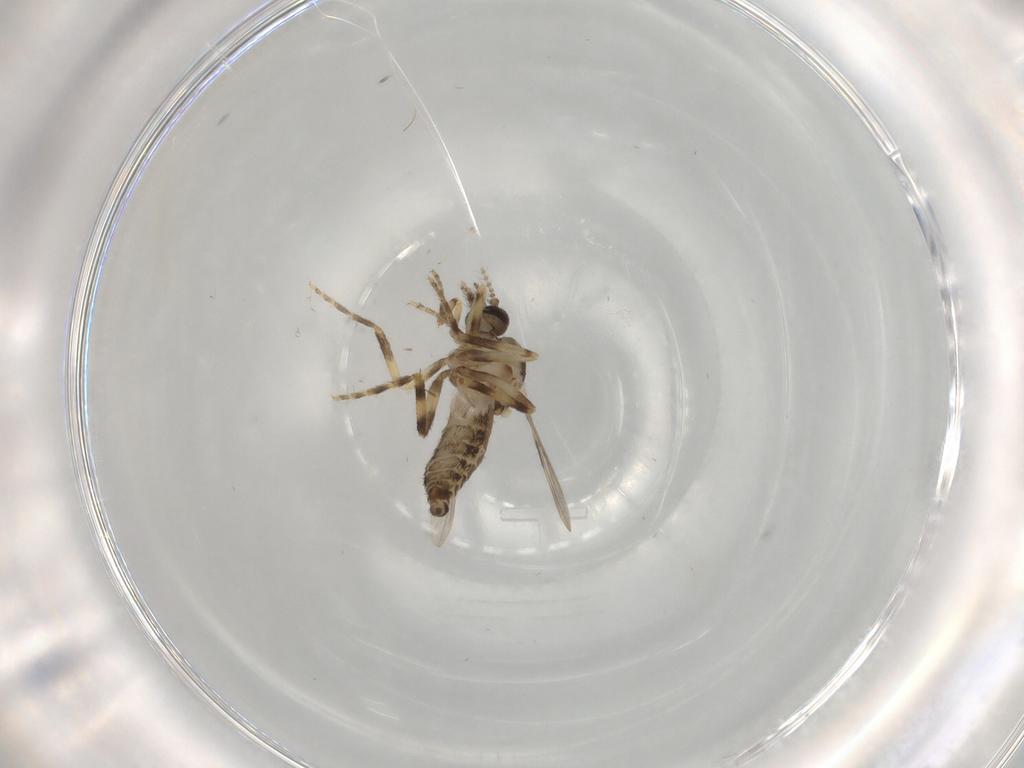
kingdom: Animalia
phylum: Arthropoda
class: Insecta
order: Diptera
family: Ceratopogonidae
